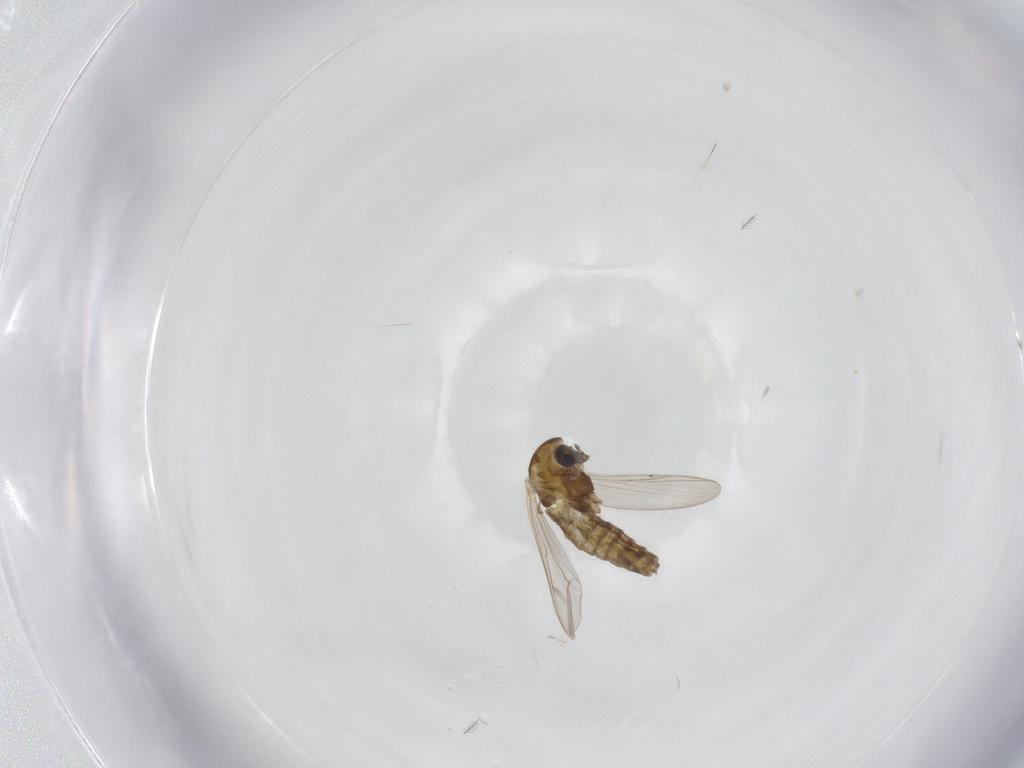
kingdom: Animalia
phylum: Arthropoda
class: Insecta
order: Diptera
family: Chironomidae
